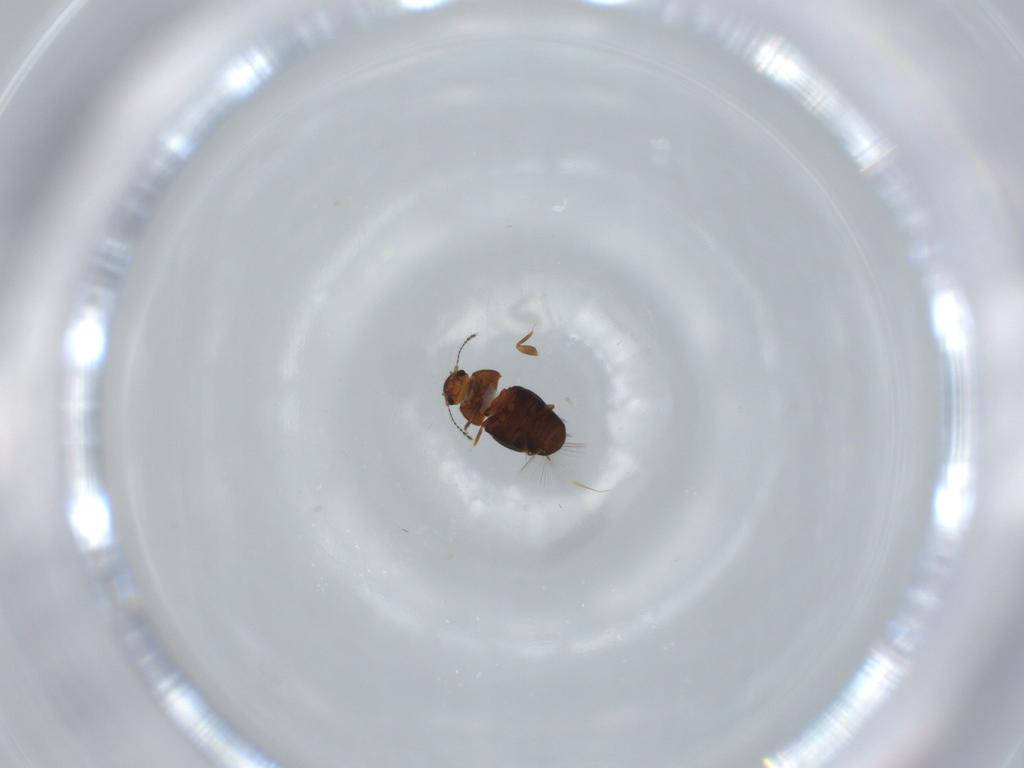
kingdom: Animalia
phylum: Arthropoda
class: Insecta
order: Coleoptera
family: Ptiliidae
